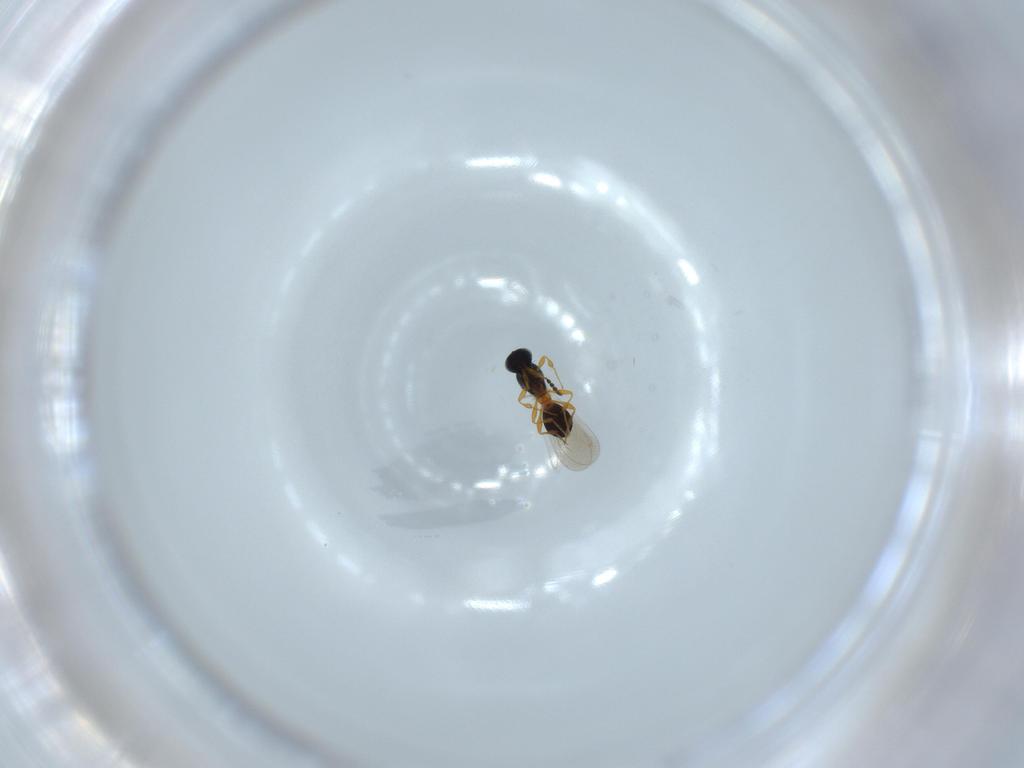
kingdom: Animalia
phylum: Arthropoda
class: Insecta
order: Hymenoptera
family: Platygastridae
